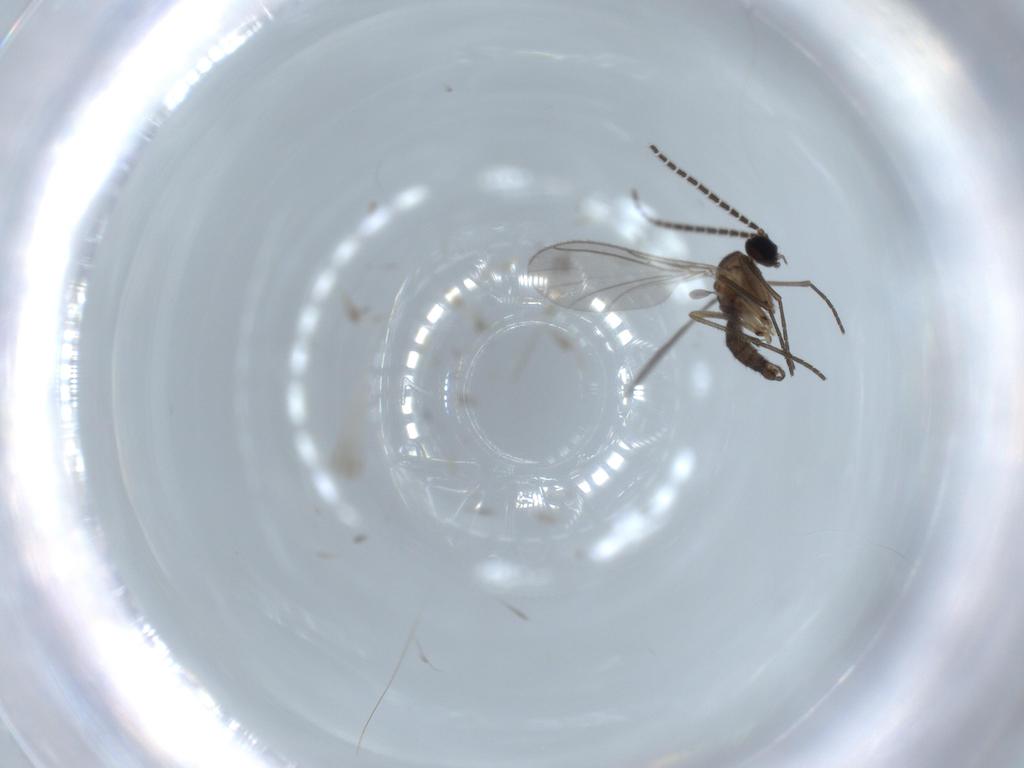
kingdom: Animalia
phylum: Arthropoda
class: Insecta
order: Diptera
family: Sciaridae
